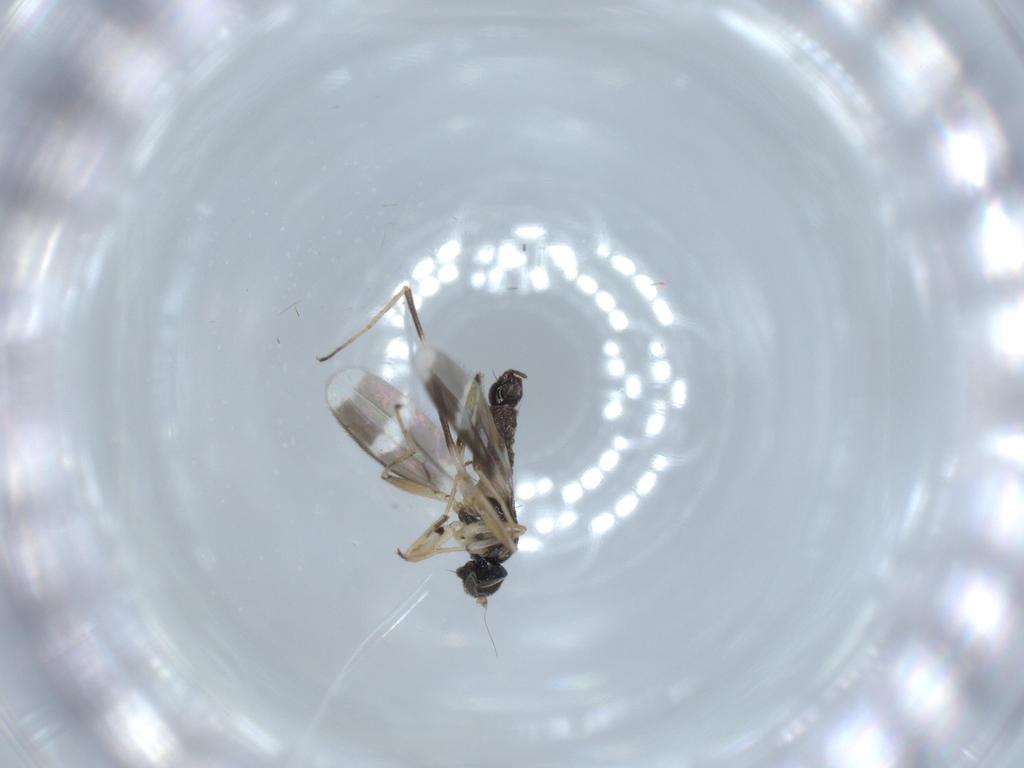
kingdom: Animalia
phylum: Arthropoda
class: Insecta
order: Diptera
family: Hybotidae
